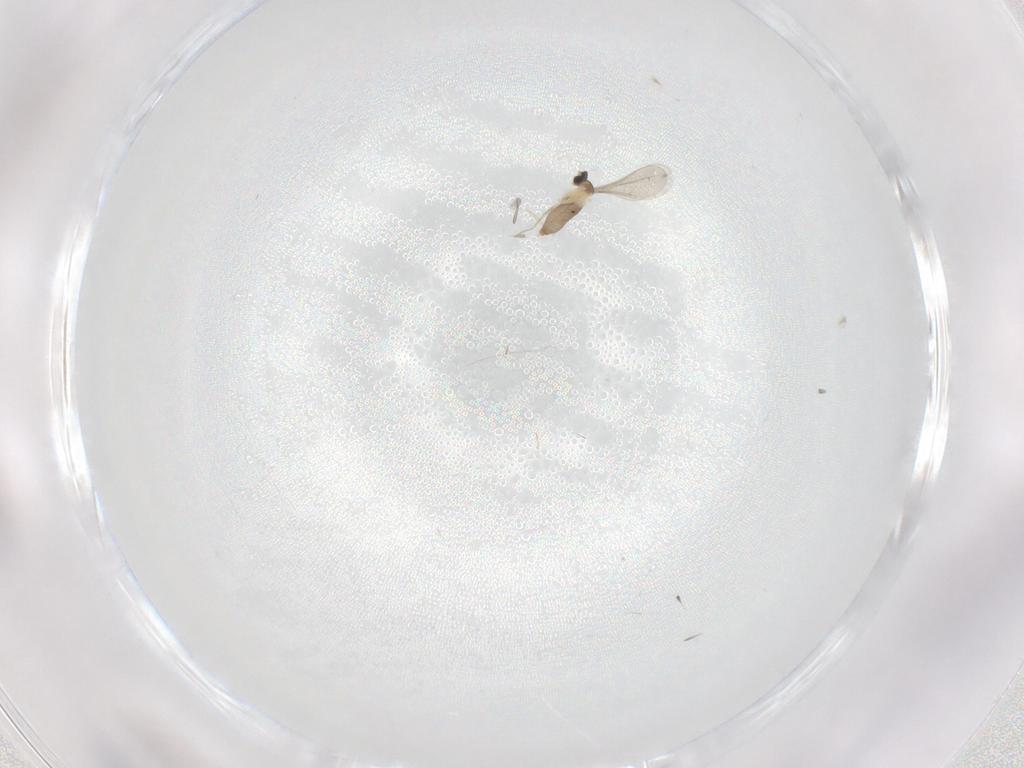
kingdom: Animalia
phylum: Arthropoda
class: Insecta
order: Diptera
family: Cecidomyiidae
